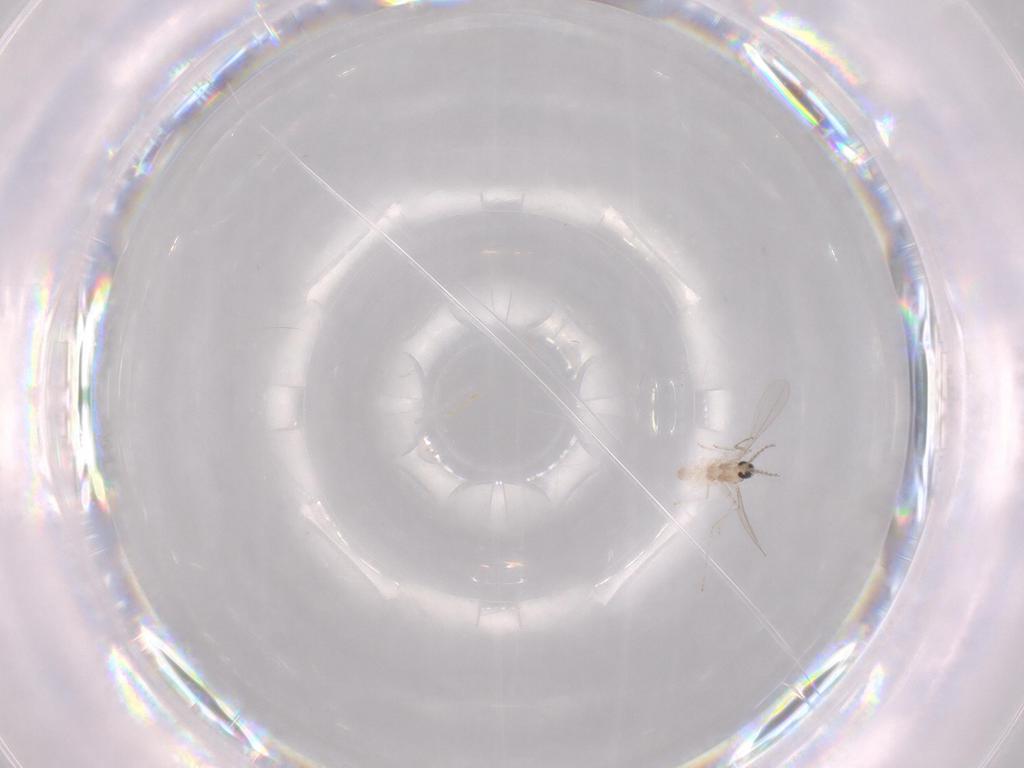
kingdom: Animalia
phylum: Arthropoda
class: Insecta
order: Diptera
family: Cecidomyiidae
